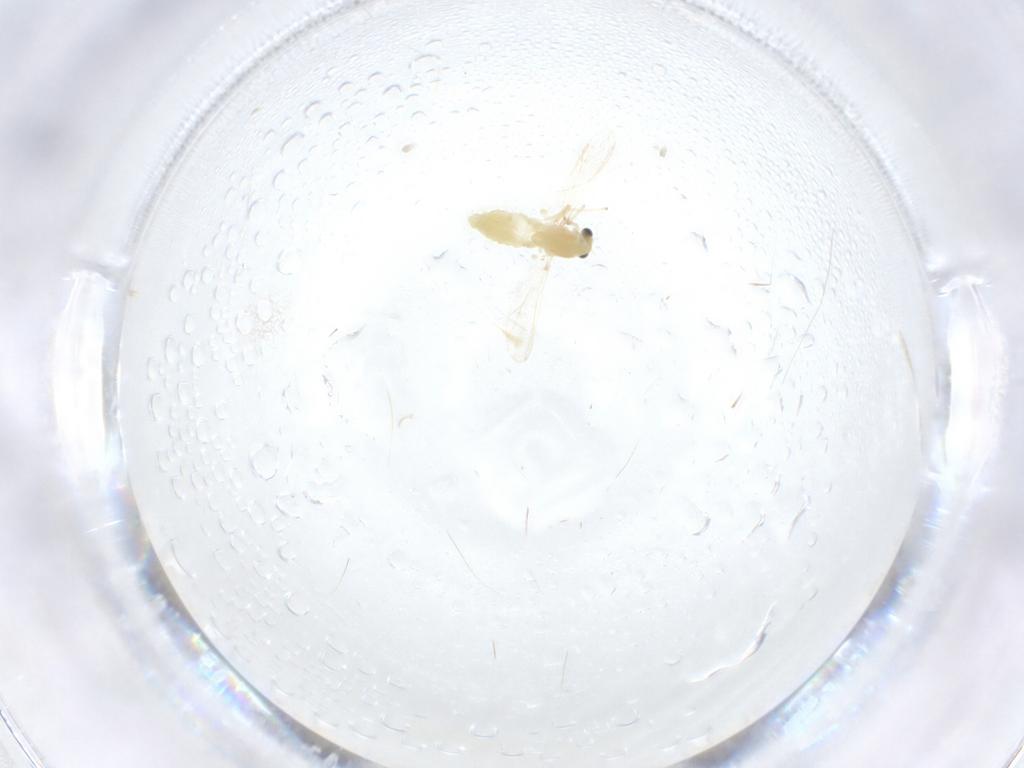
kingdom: Animalia
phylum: Arthropoda
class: Insecta
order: Diptera
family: Chironomidae
